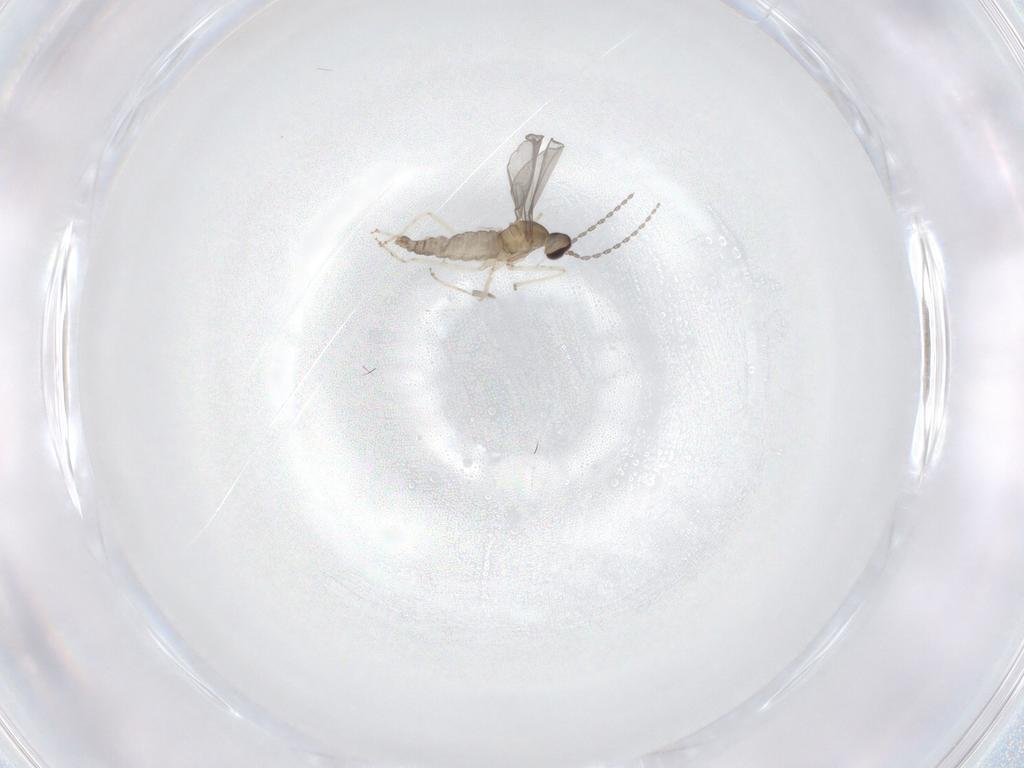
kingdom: Animalia
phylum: Arthropoda
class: Insecta
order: Diptera
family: Cecidomyiidae
